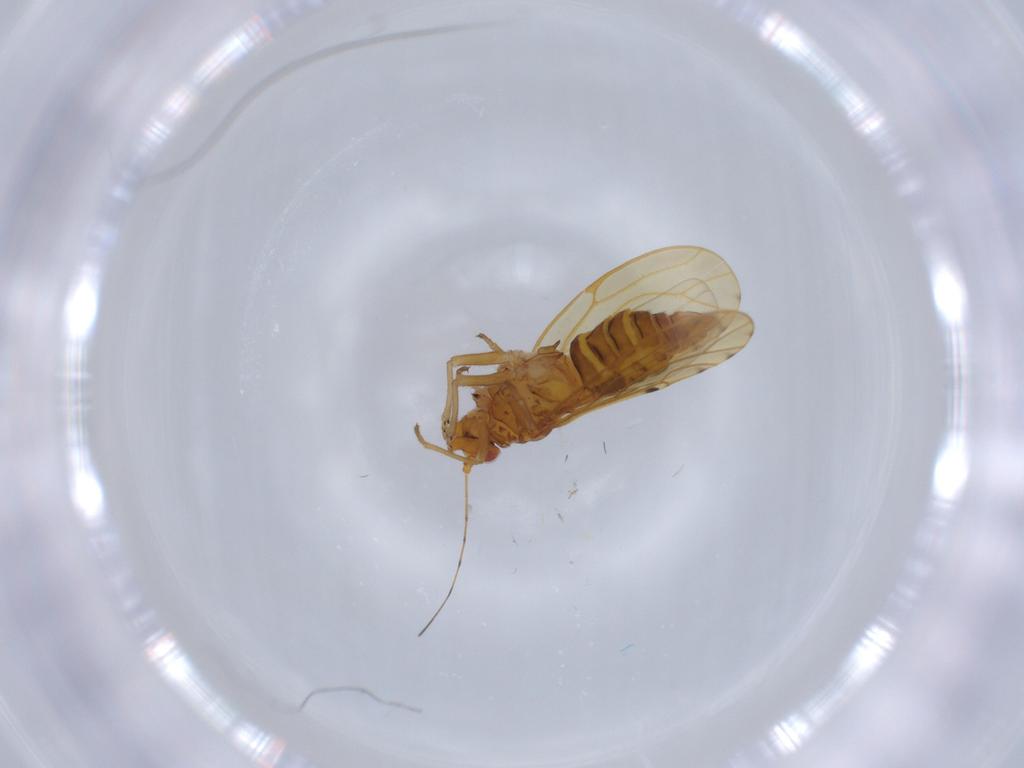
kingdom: Animalia
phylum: Arthropoda
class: Insecta
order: Hemiptera
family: Psylloidea_incertae_sedis
